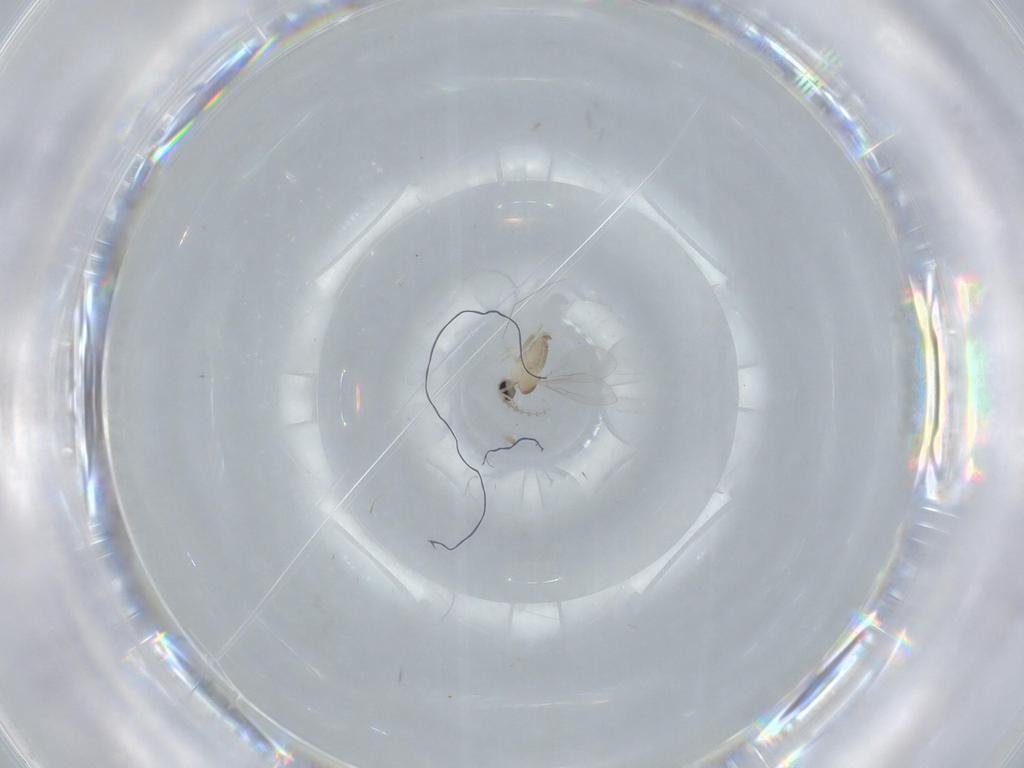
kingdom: Animalia
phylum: Arthropoda
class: Insecta
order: Diptera
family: Cecidomyiidae
